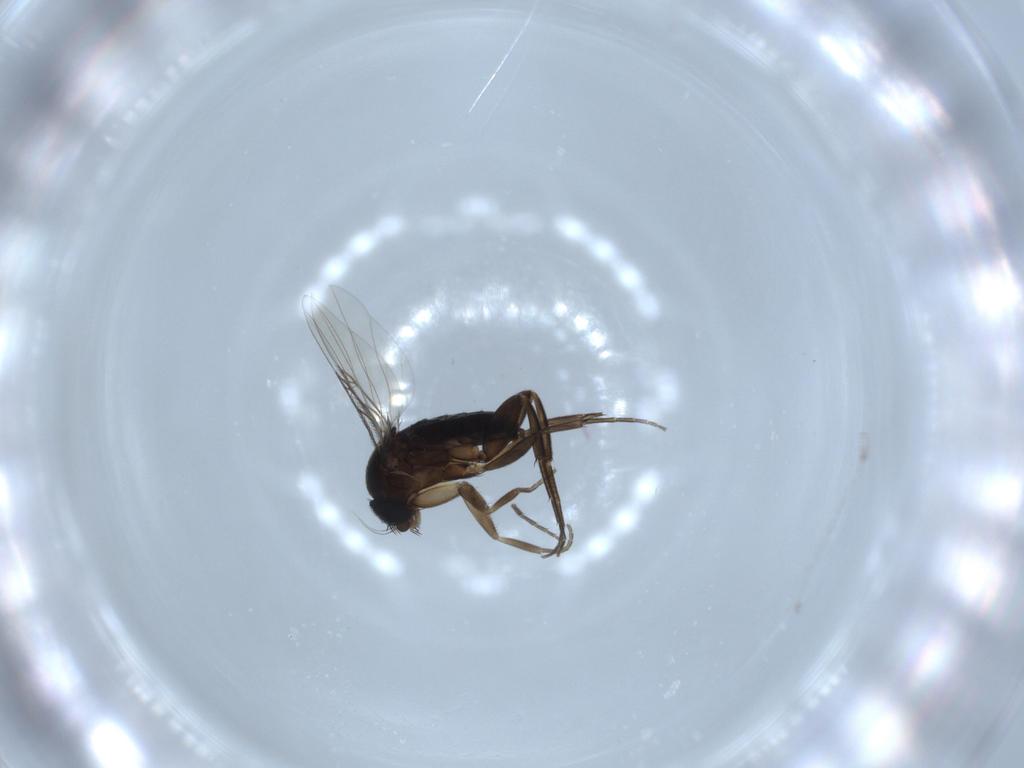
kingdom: Animalia
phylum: Arthropoda
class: Insecta
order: Diptera
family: Phoridae
